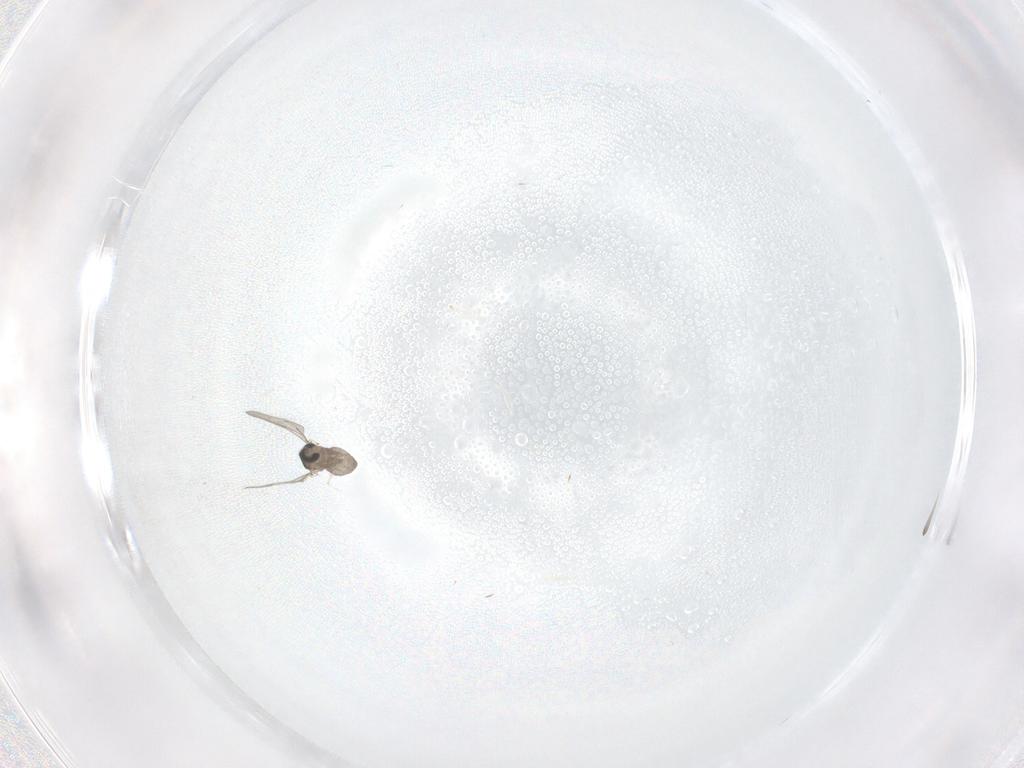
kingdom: Animalia
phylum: Arthropoda
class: Insecta
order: Diptera
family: Cecidomyiidae
